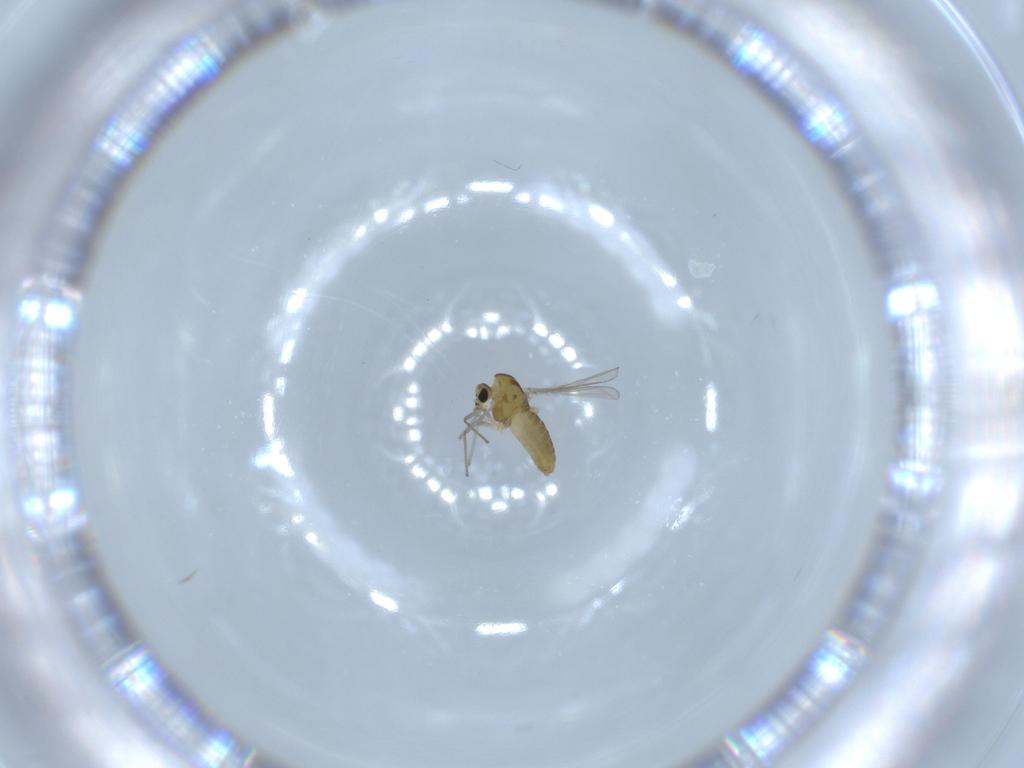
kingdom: Animalia
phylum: Arthropoda
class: Insecta
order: Diptera
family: Chironomidae
